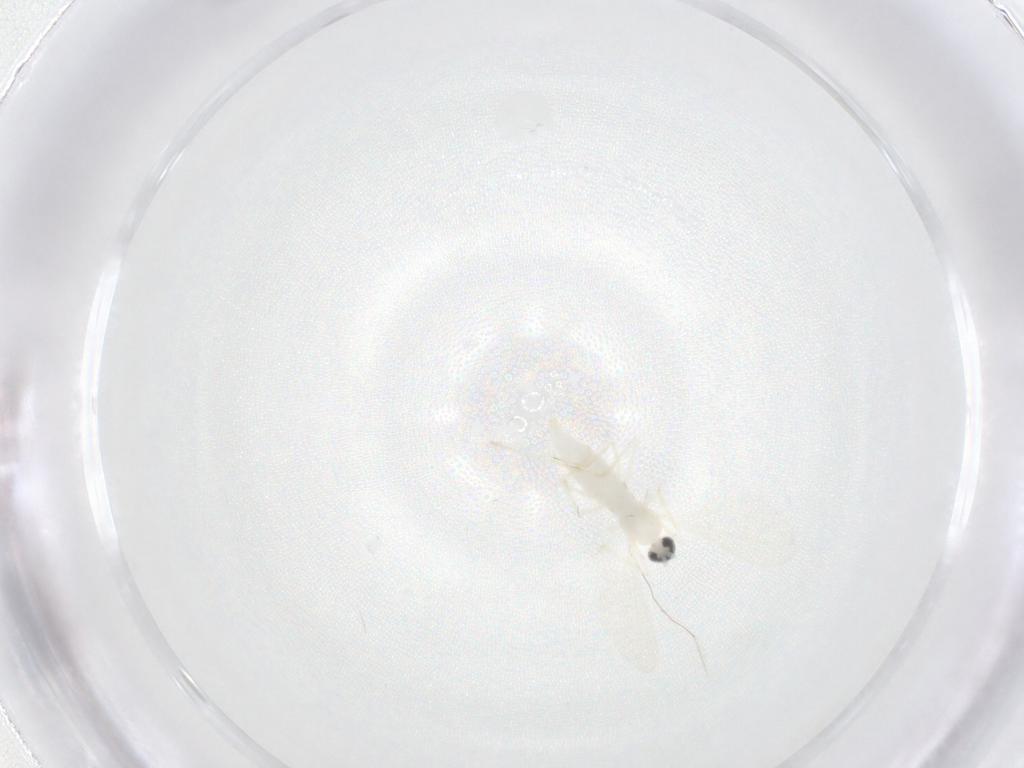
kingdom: Animalia
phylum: Arthropoda
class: Insecta
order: Diptera
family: Cecidomyiidae
